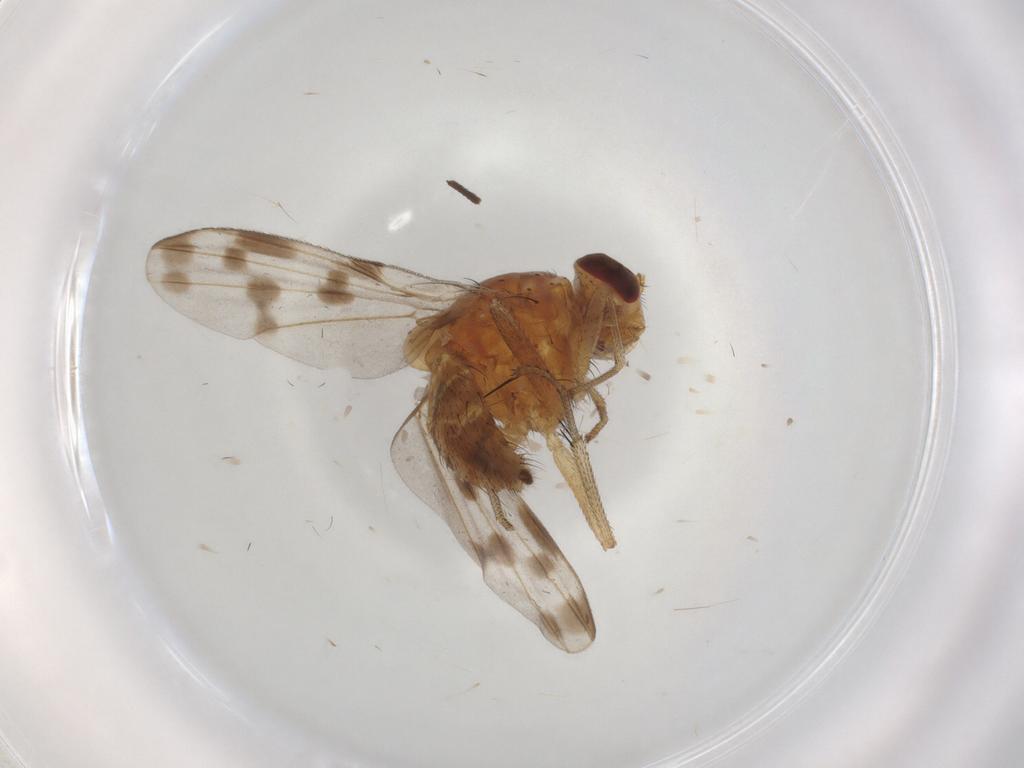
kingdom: Animalia
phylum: Arthropoda
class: Insecta
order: Diptera
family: Lauxaniidae
